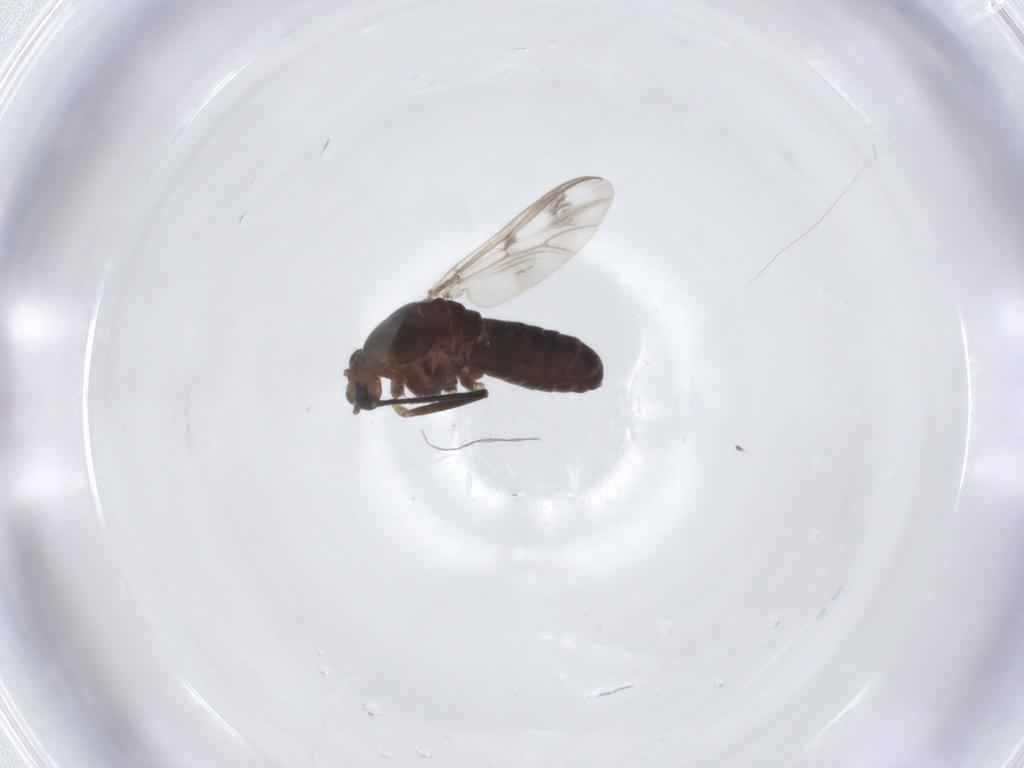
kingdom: Animalia
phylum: Arthropoda
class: Insecta
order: Diptera
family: Chironomidae
